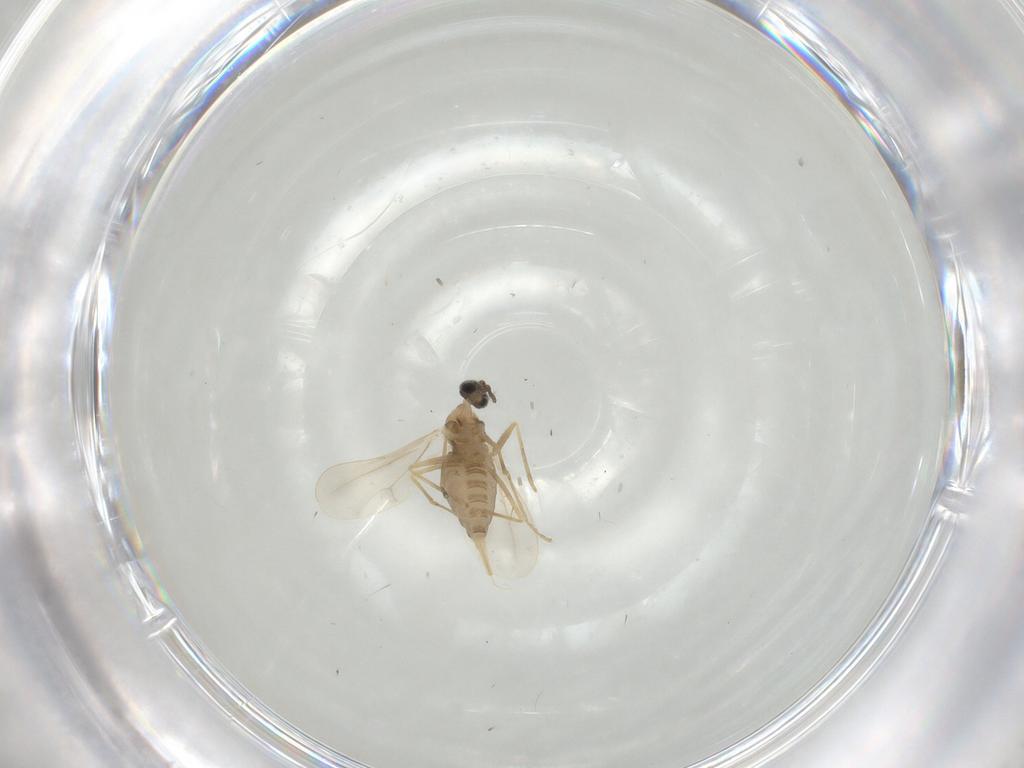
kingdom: Animalia
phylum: Arthropoda
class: Insecta
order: Diptera
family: Cecidomyiidae
